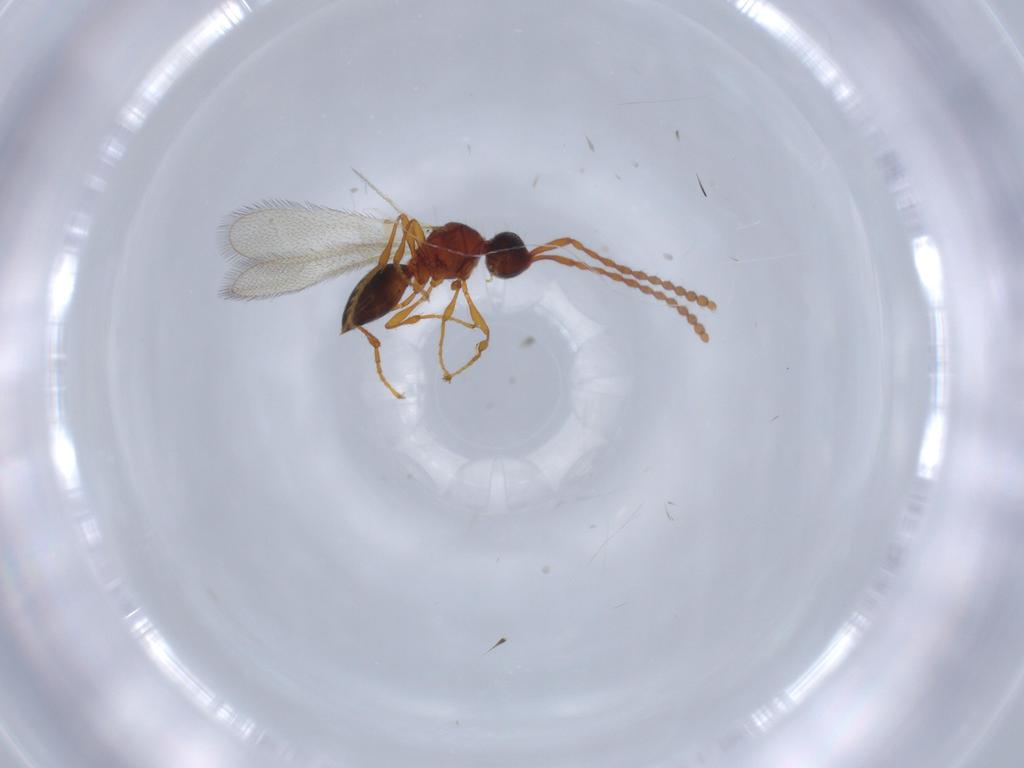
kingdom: Animalia
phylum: Arthropoda
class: Insecta
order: Hymenoptera
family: Diapriidae
